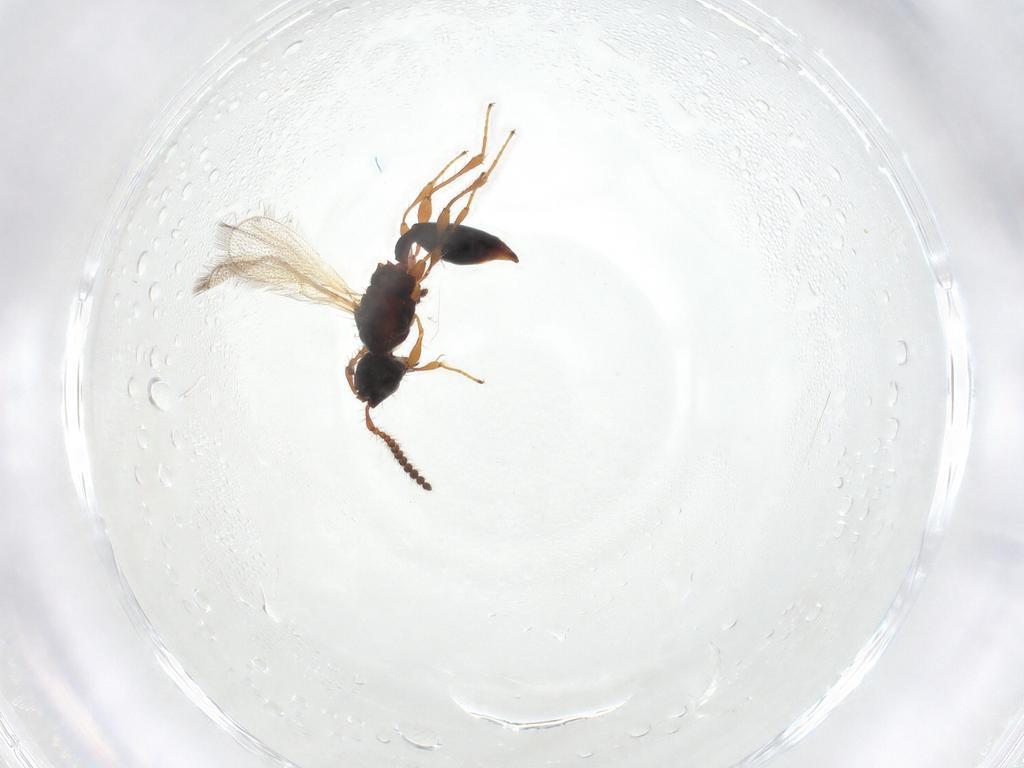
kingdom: Animalia
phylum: Arthropoda
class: Insecta
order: Hymenoptera
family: Diapriidae
